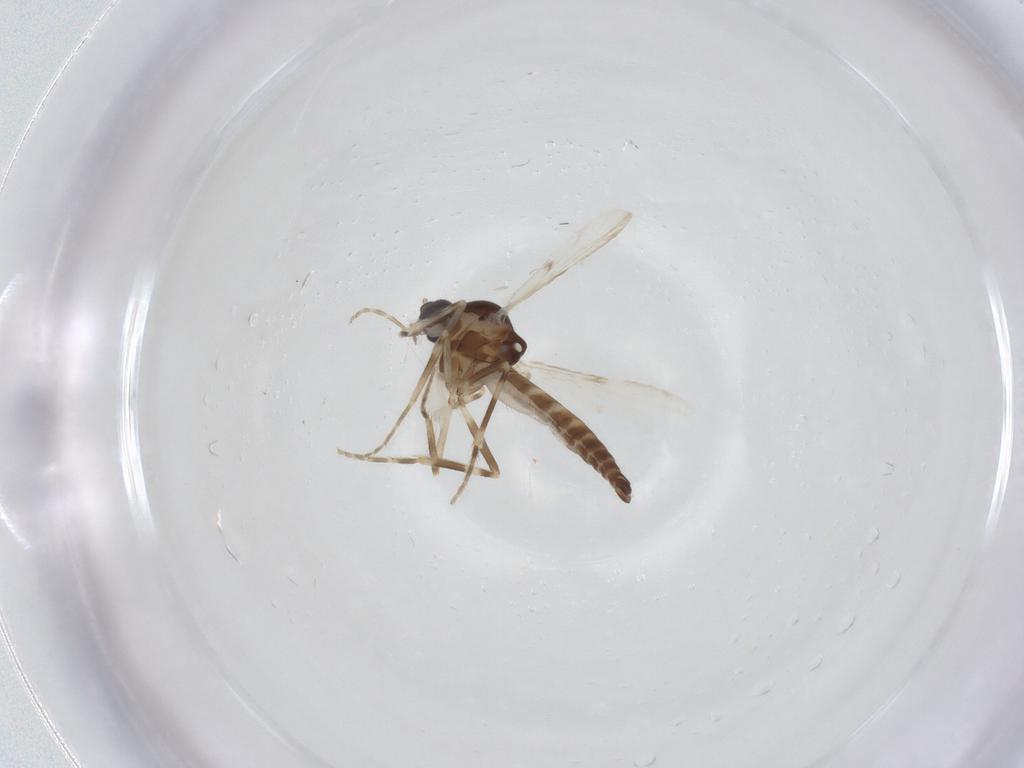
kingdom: Animalia
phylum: Arthropoda
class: Insecta
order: Diptera
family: Ceratopogonidae
